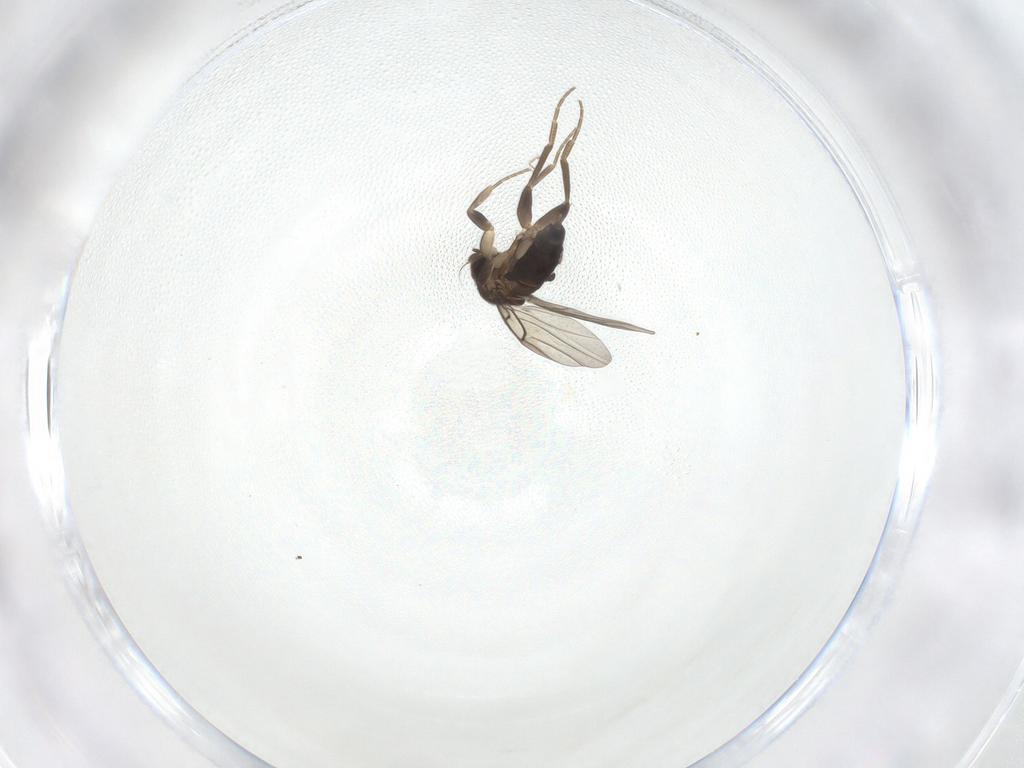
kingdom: Animalia
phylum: Arthropoda
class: Insecta
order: Diptera
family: Phoridae
